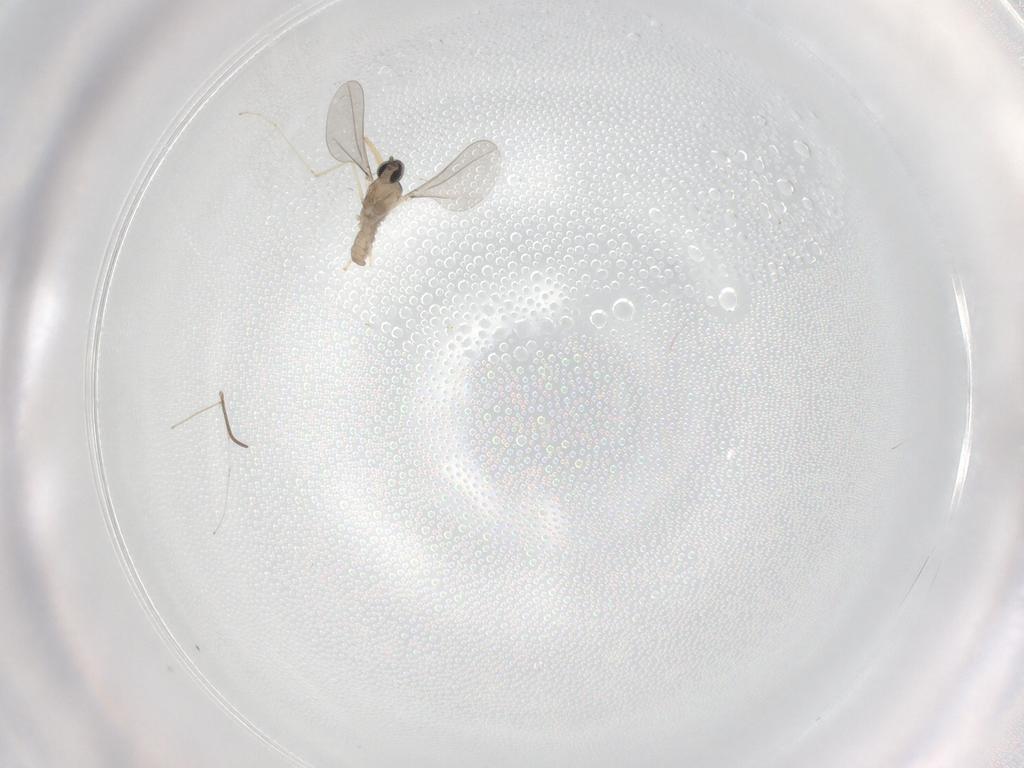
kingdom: Animalia
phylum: Arthropoda
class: Insecta
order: Diptera
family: Cecidomyiidae
